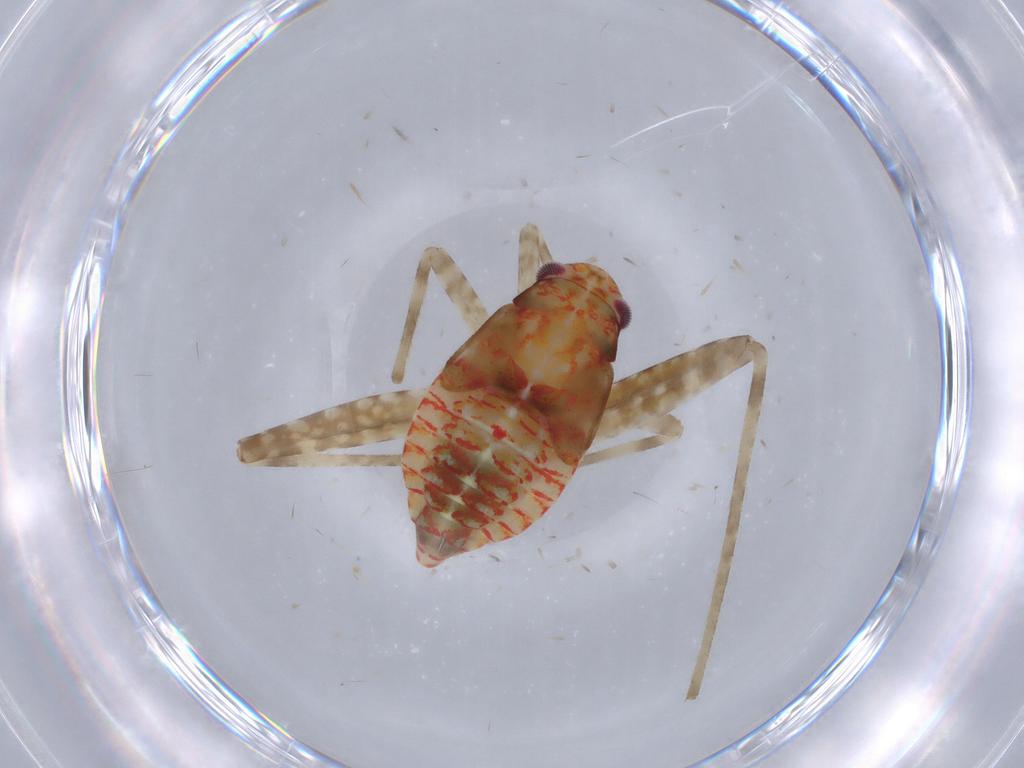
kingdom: Animalia
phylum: Arthropoda
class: Insecta
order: Hemiptera
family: Miridae
